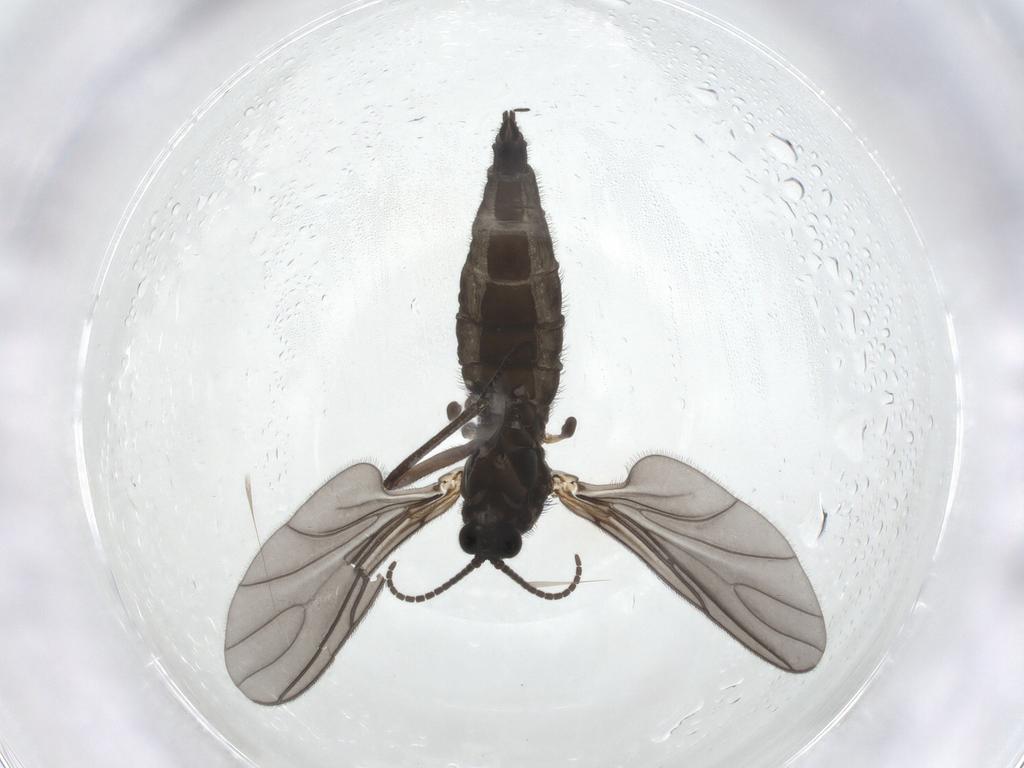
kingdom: Animalia
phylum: Arthropoda
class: Insecta
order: Diptera
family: Sciaridae
